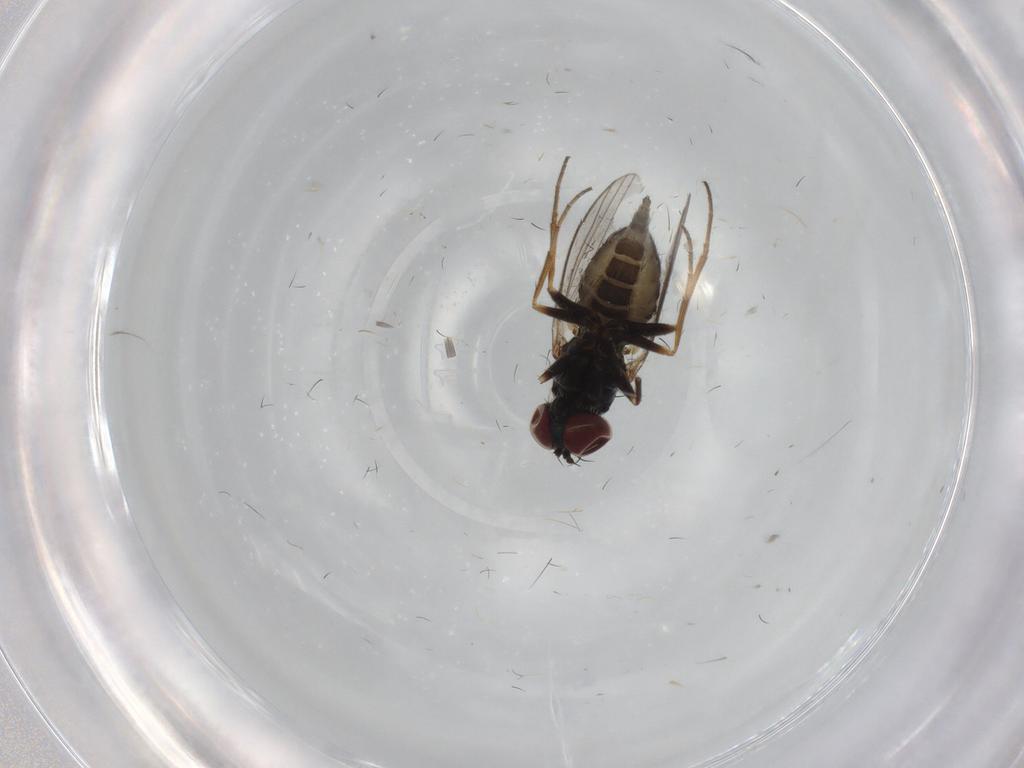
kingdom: Animalia
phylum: Arthropoda
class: Insecta
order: Diptera
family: Dolichopodidae
